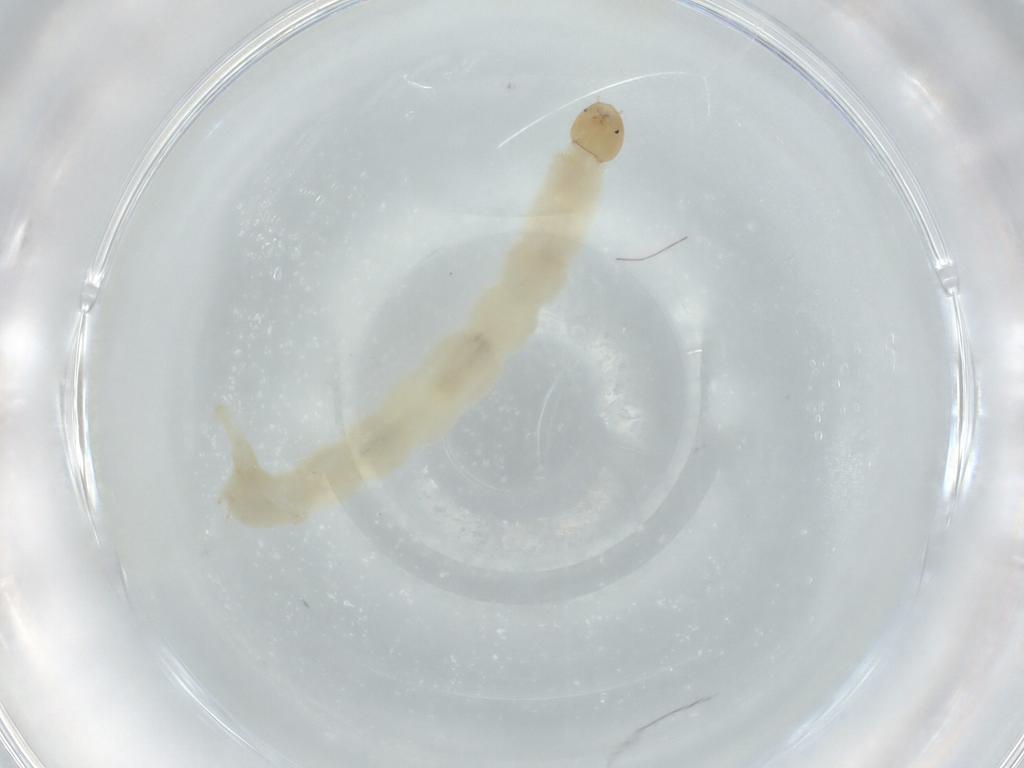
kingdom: Animalia
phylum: Arthropoda
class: Insecta
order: Diptera
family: Chironomidae
